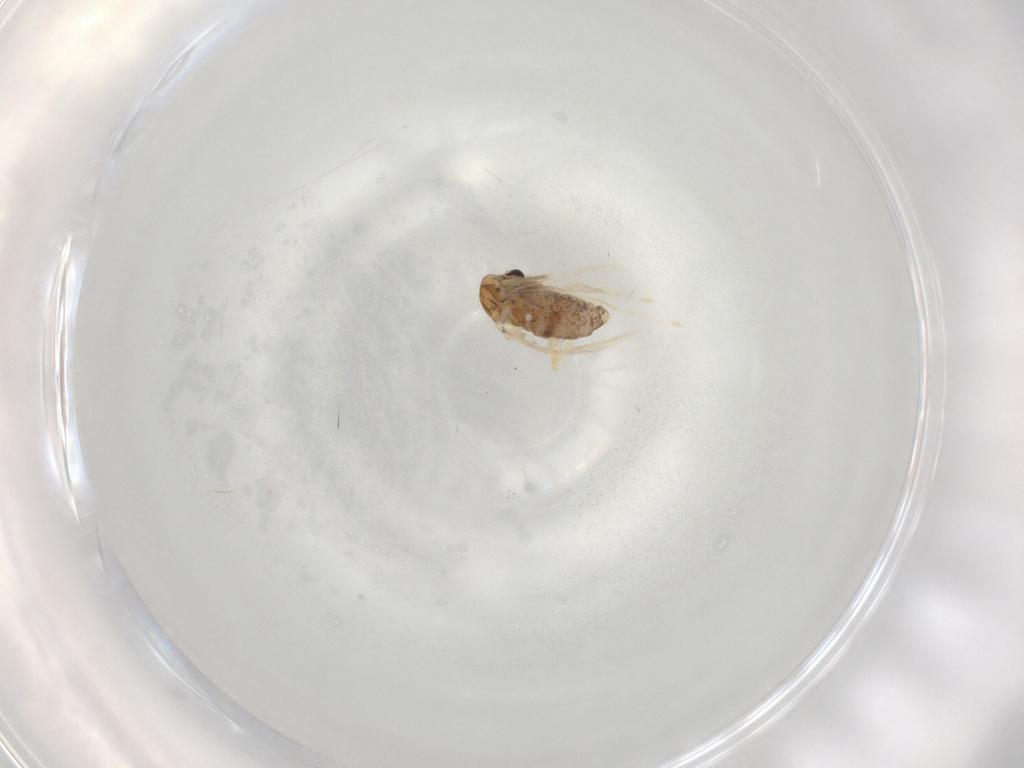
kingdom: Animalia
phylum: Arthropoda
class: Insecta
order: Diptera
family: Chironomidae
